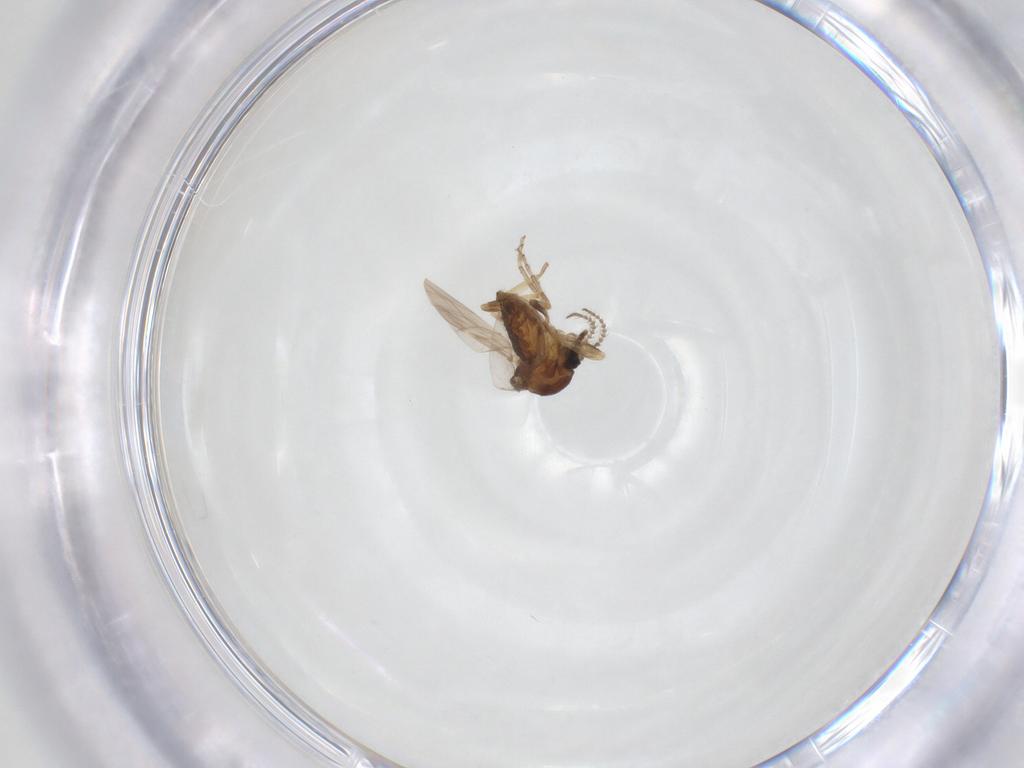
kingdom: Animalia
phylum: Arthropoda
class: Insecta
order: Diptera
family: Ceratopogonidae
